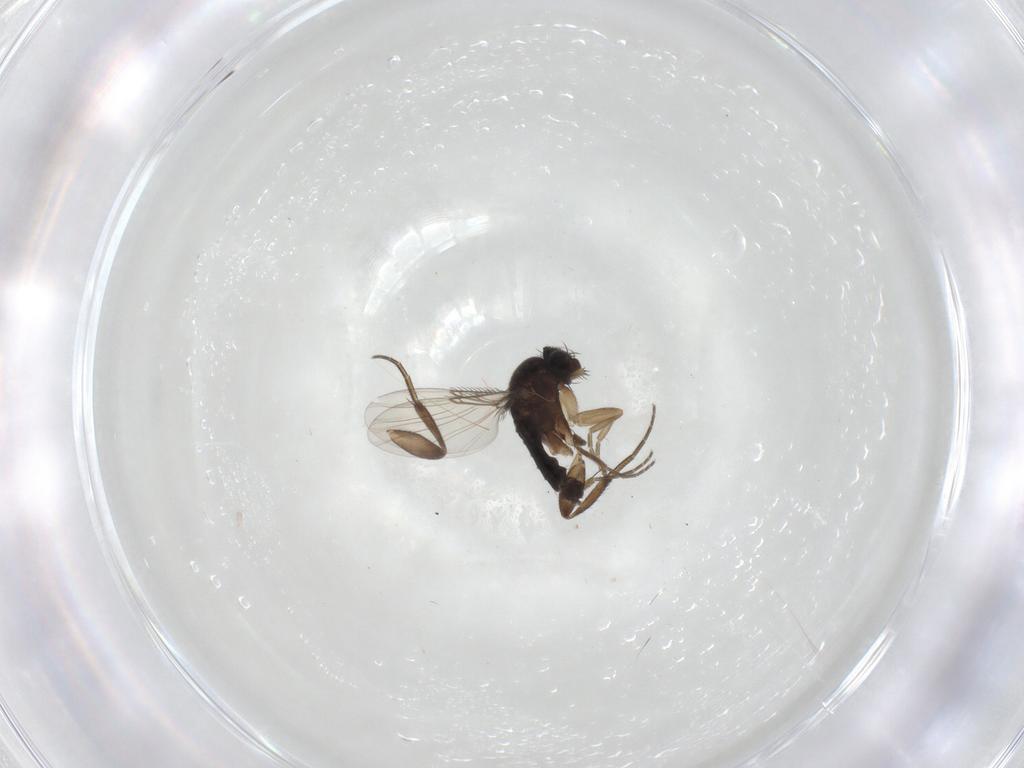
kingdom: Animalia
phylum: Arthropoda
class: Insecta
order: Diptera
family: Phoridae
